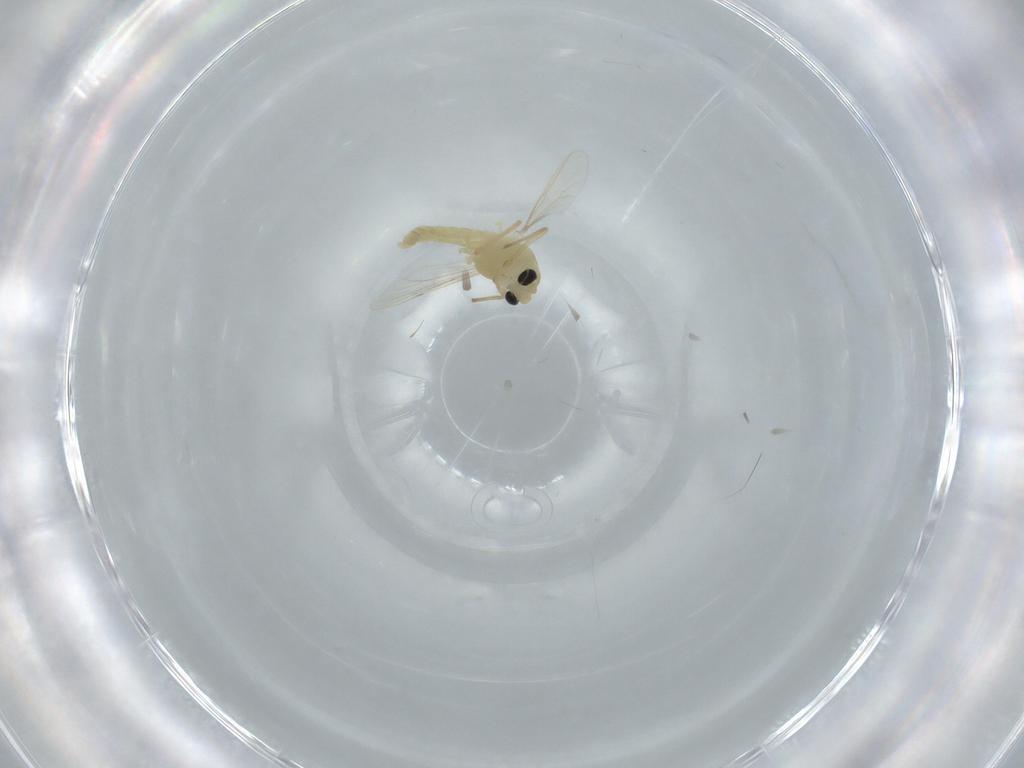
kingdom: Animalia
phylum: Arthropoda
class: Insecta
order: Diptera
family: Chironomidae
